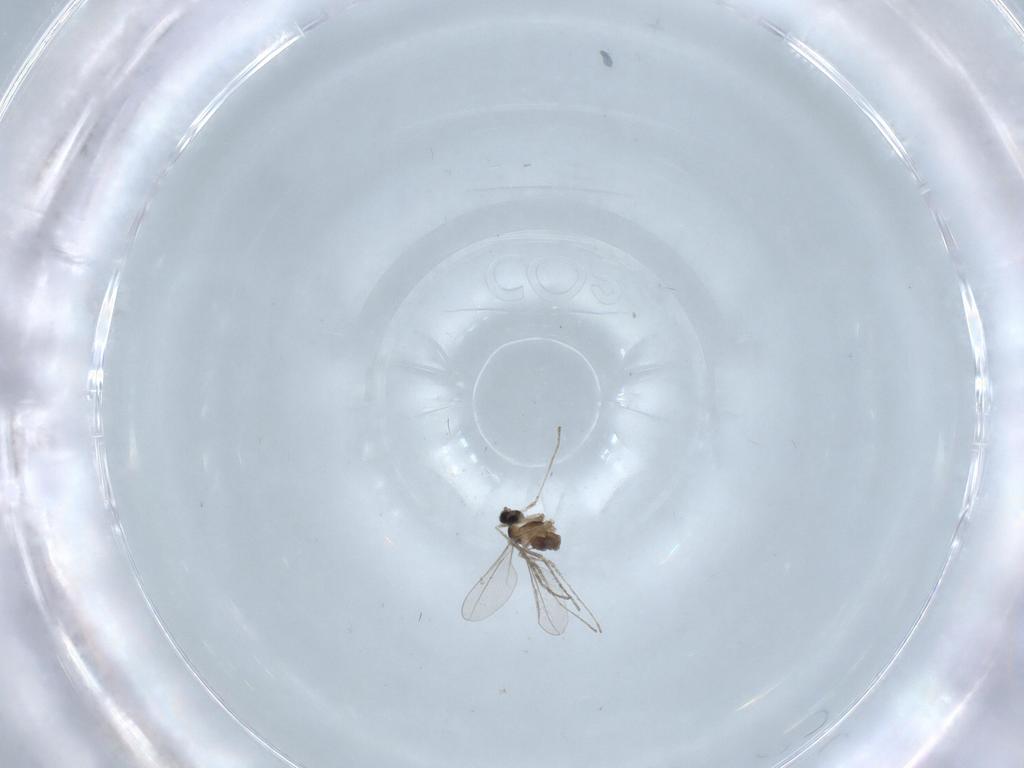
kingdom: Animalia
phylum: Arthropoda
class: Insecta
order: Diptera
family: Cecidomyiidae
